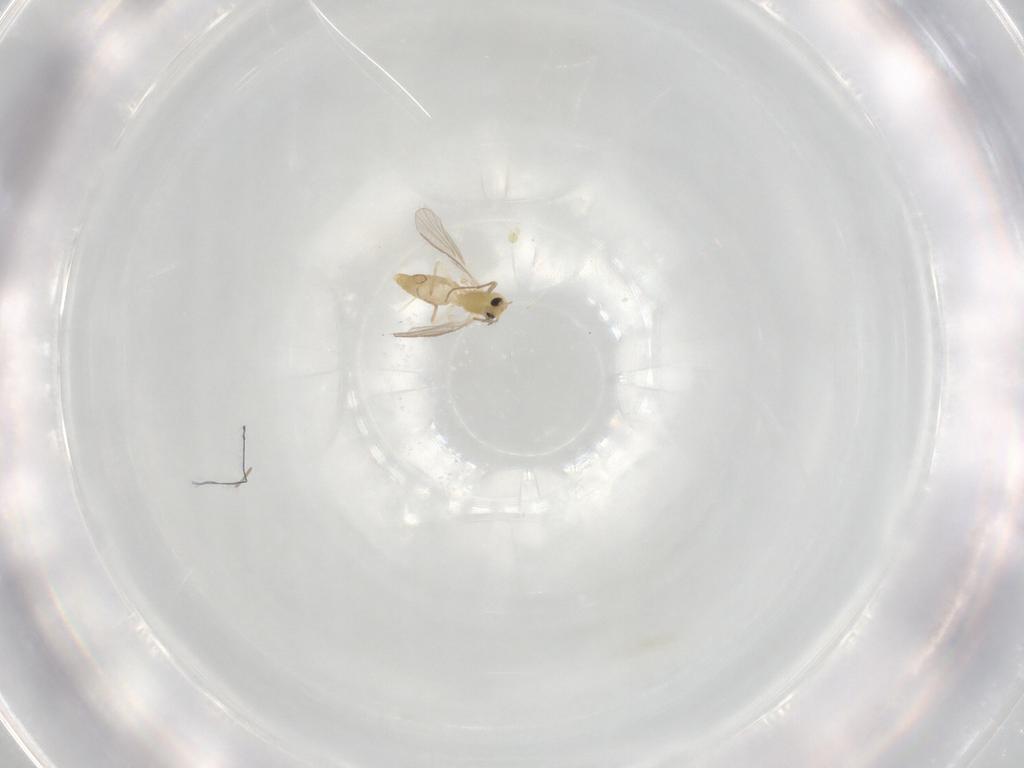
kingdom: Animalia
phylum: Arthropoda
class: Insecta
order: Diptera
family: Chironomidae
